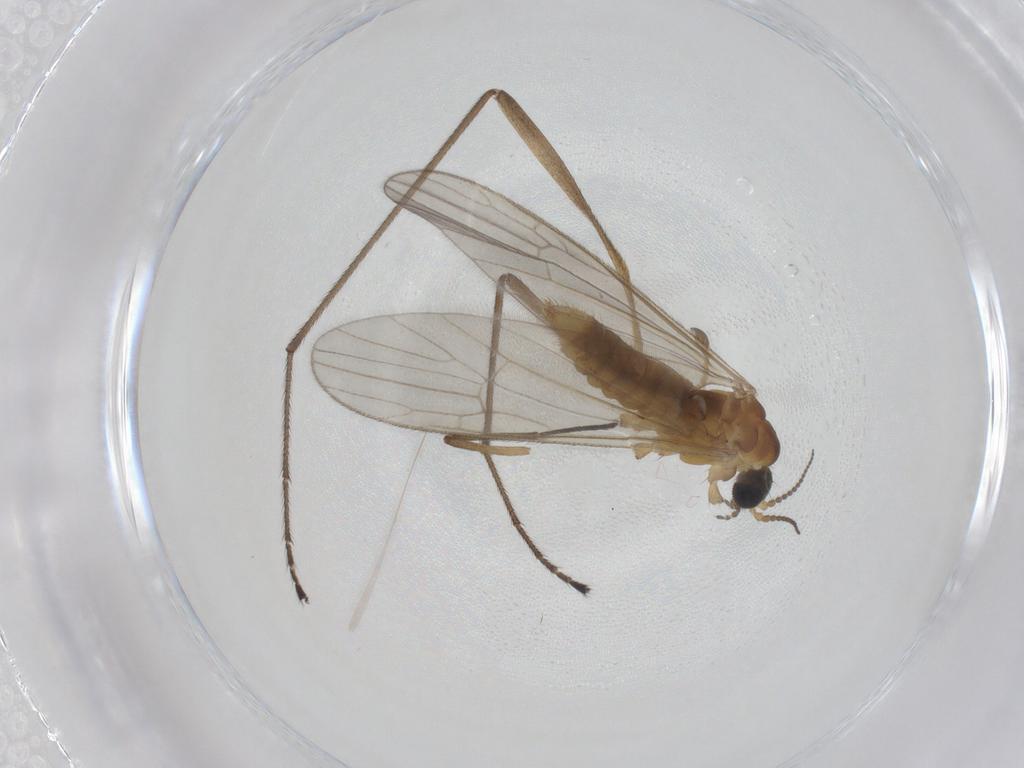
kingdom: Animalia
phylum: Arthropoda
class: Insecta
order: Diptera
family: Limoniidae
